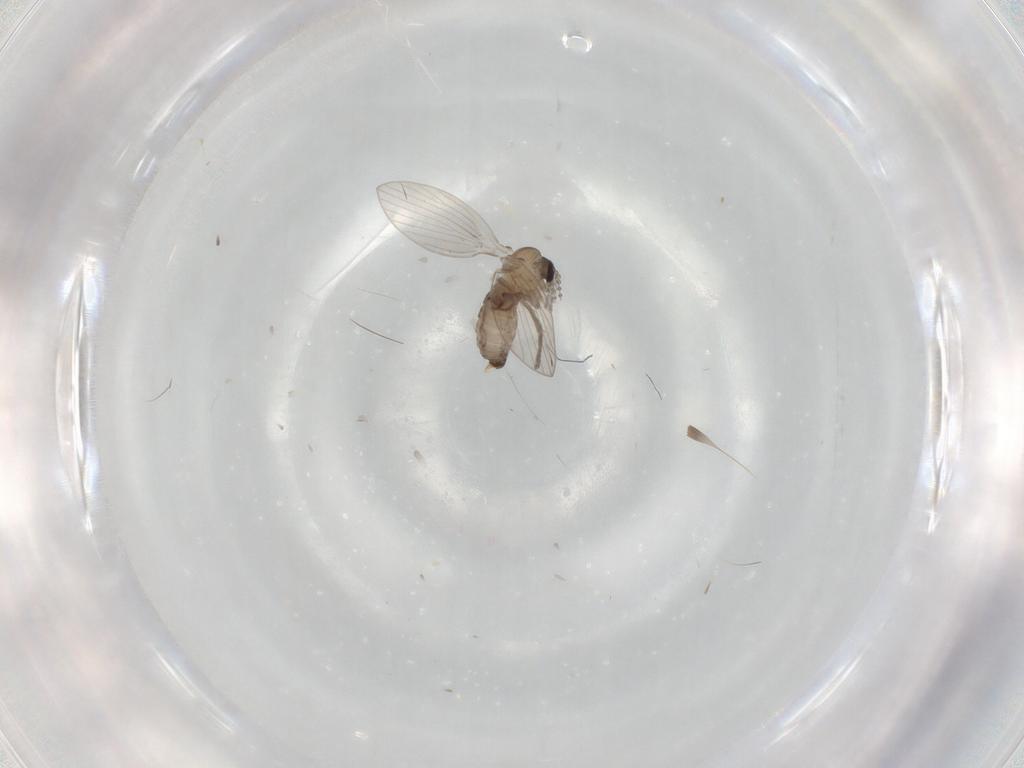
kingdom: Animalia
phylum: Arthropoda
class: Insecta
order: Diptera
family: Psychodidae
